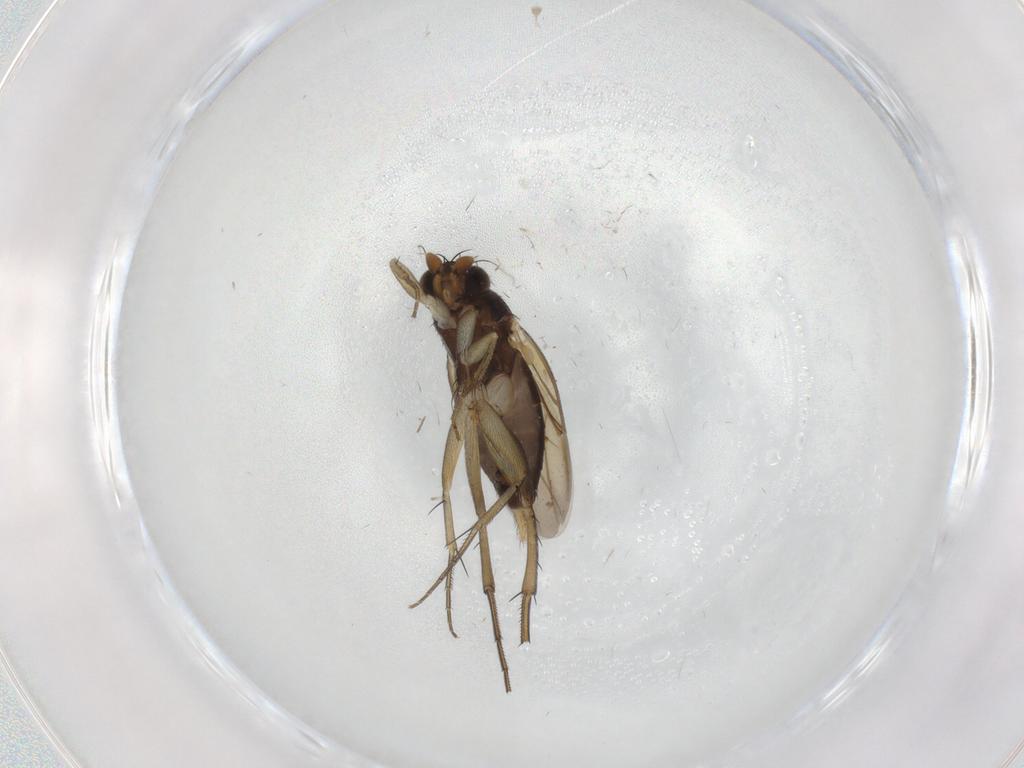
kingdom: Animalia
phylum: Arthropoda
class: Insecta
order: Diptera
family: Phoridae
